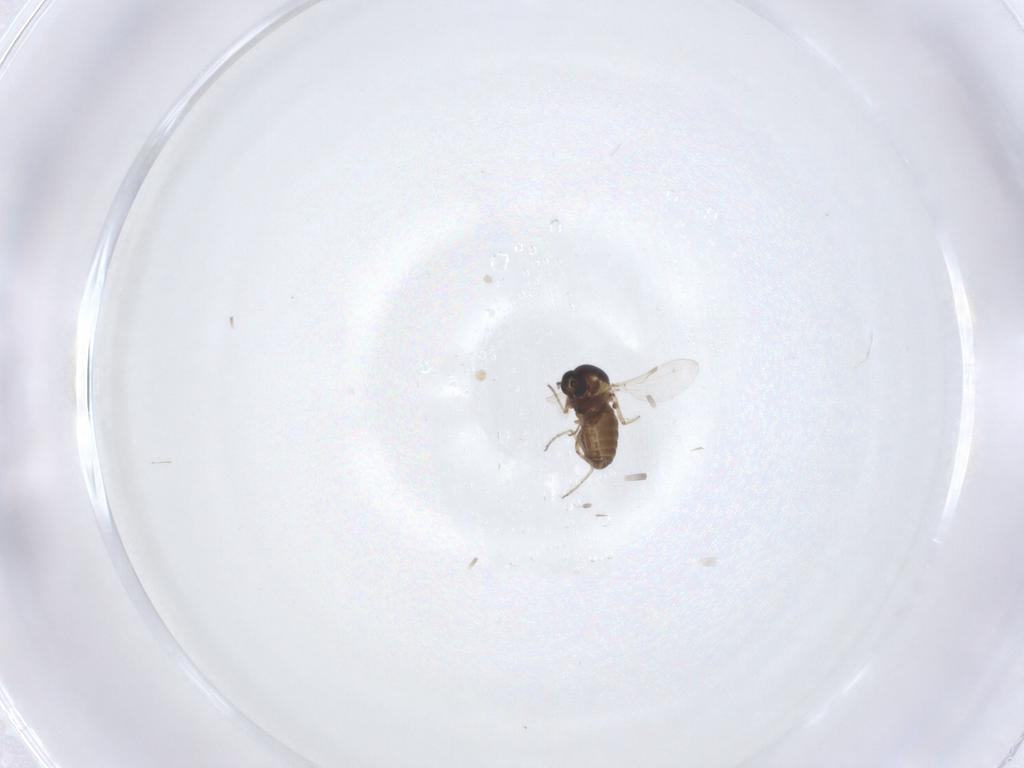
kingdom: Animalia
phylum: Arthropoda
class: Insecta
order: Diptera
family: Ceratopogonidae
